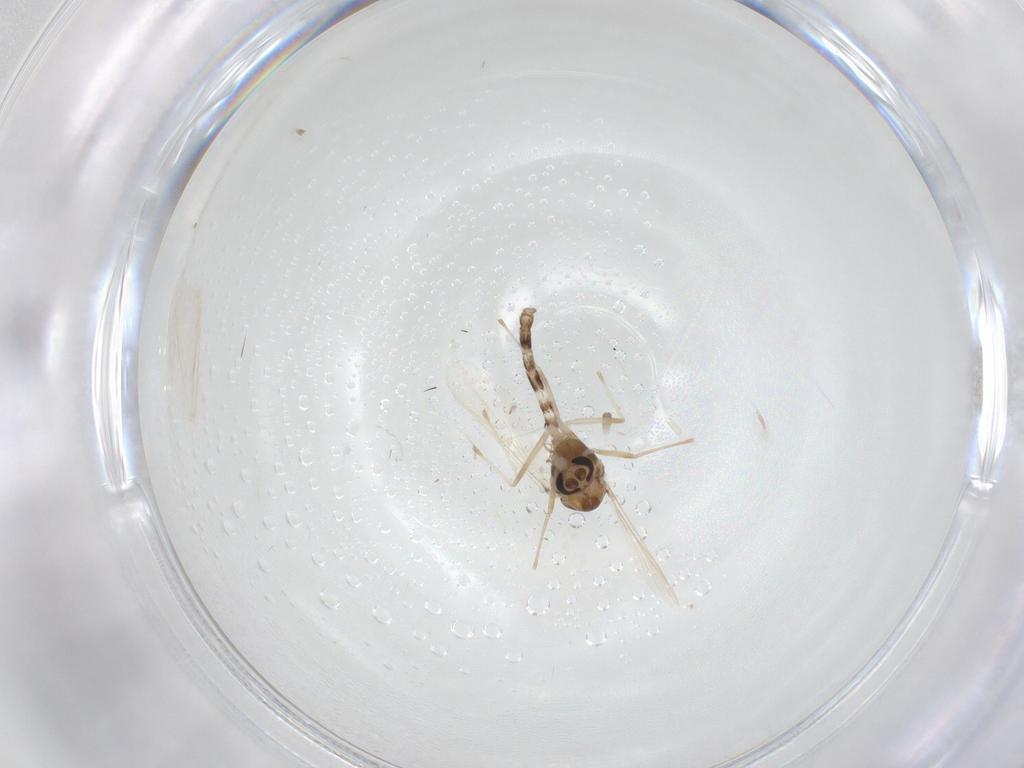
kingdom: Animalia
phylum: Arthropoda
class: Insecta
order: Diptera
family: Chironomidae
